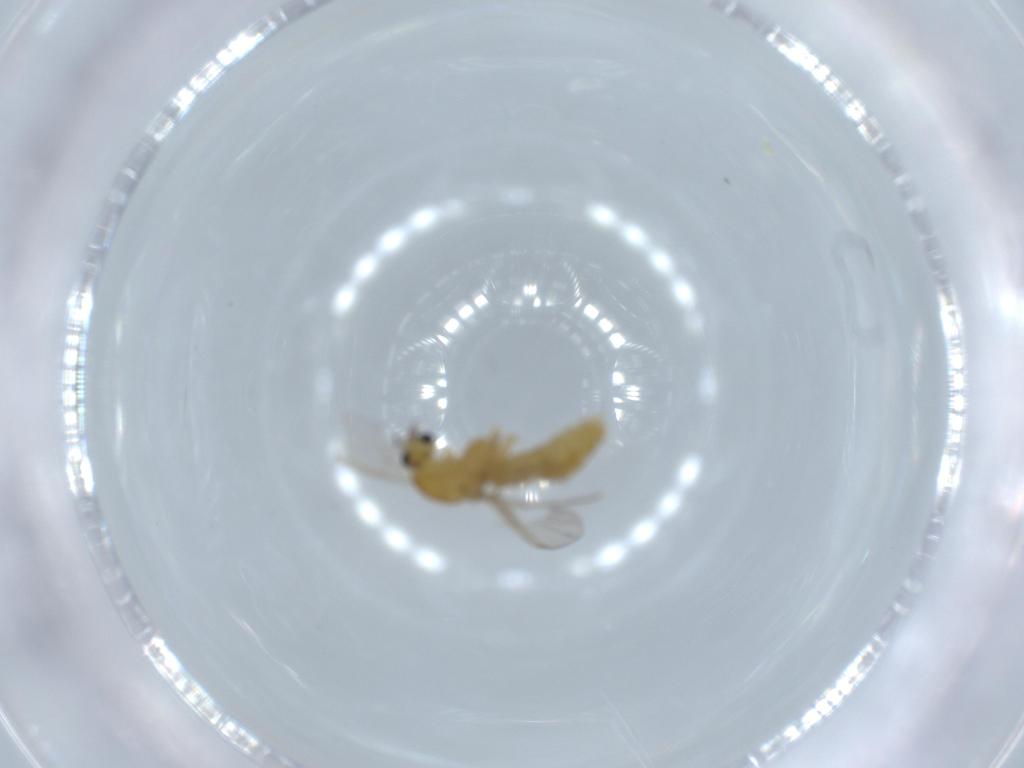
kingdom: Animalia
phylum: Arthropoda
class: Insecta
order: Diptera
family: Chironomidae
